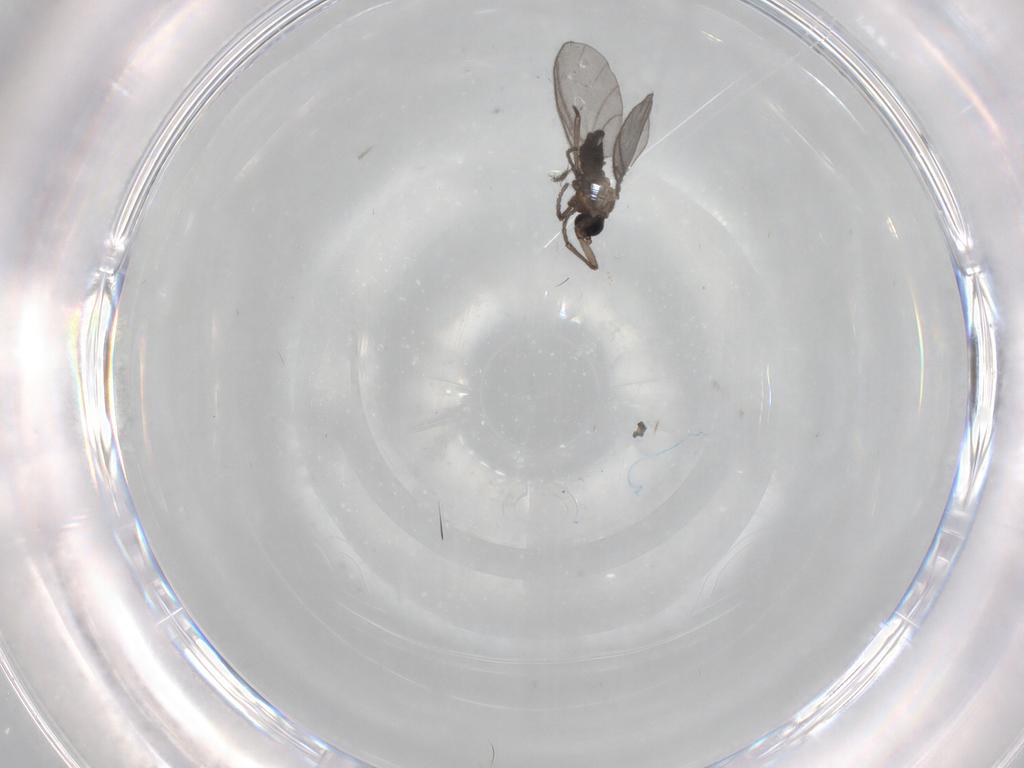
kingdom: Animalia
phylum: Arthropoda
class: Insecta
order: Diptera
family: Sciaridae
